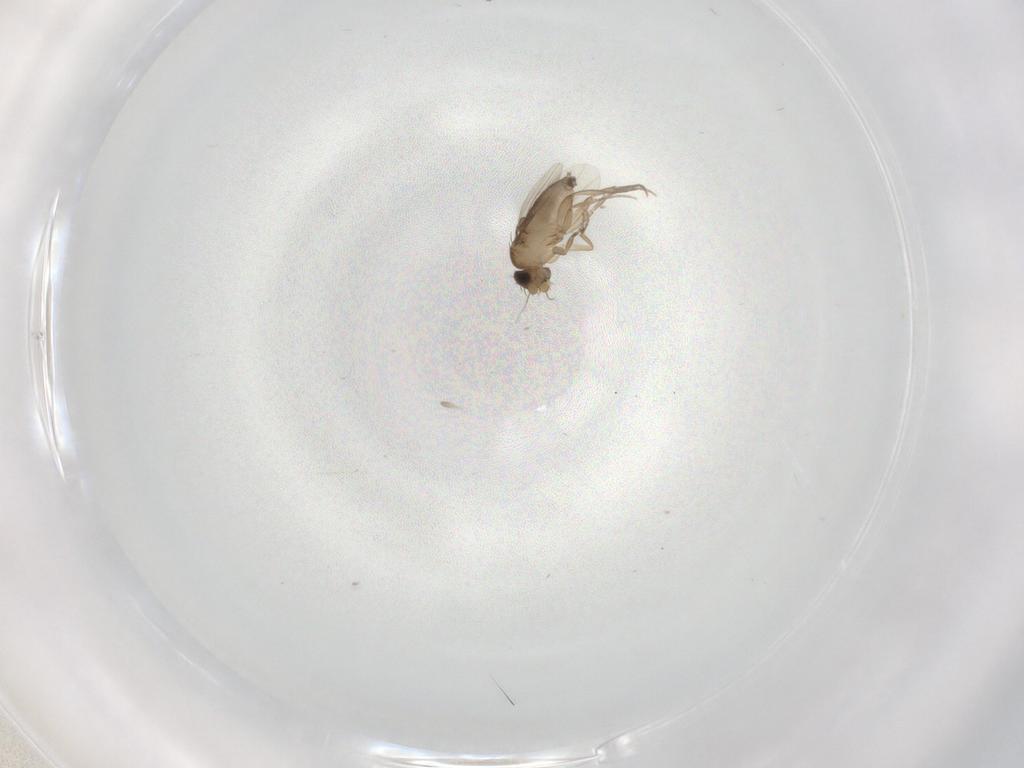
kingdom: Animalia
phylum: Arthropoda
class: Insecta
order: Diptera
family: Phoridae
